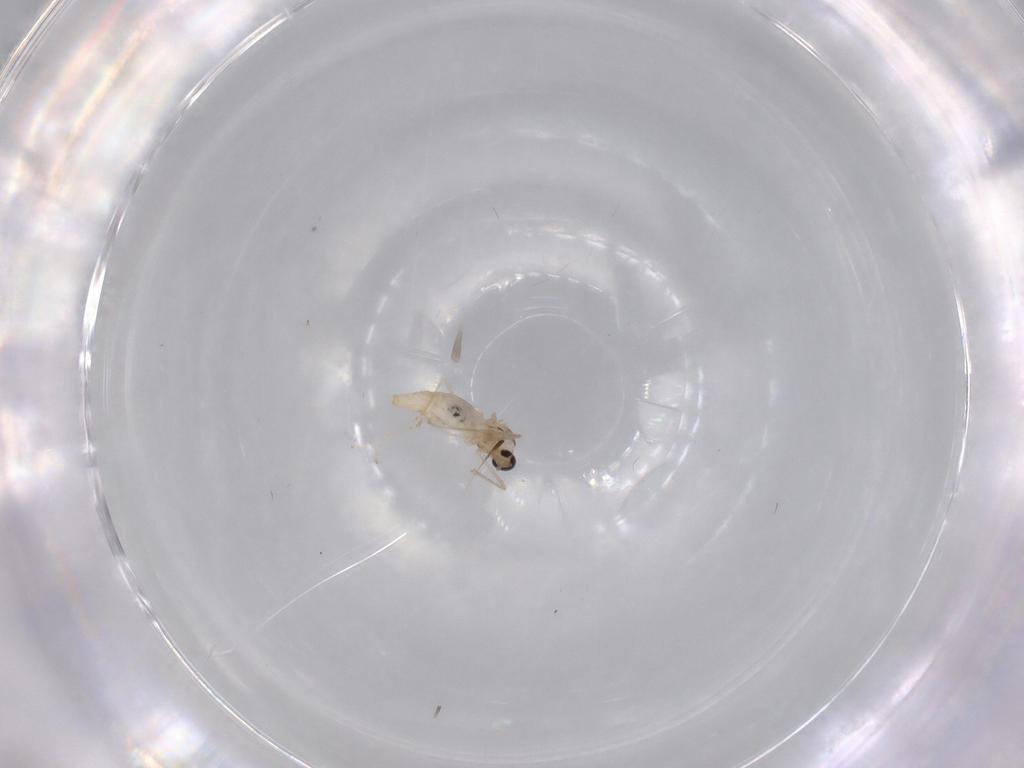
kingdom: Animalia
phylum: Arthropoda
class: Insecta
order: Diptera
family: Cecidomyiidae
